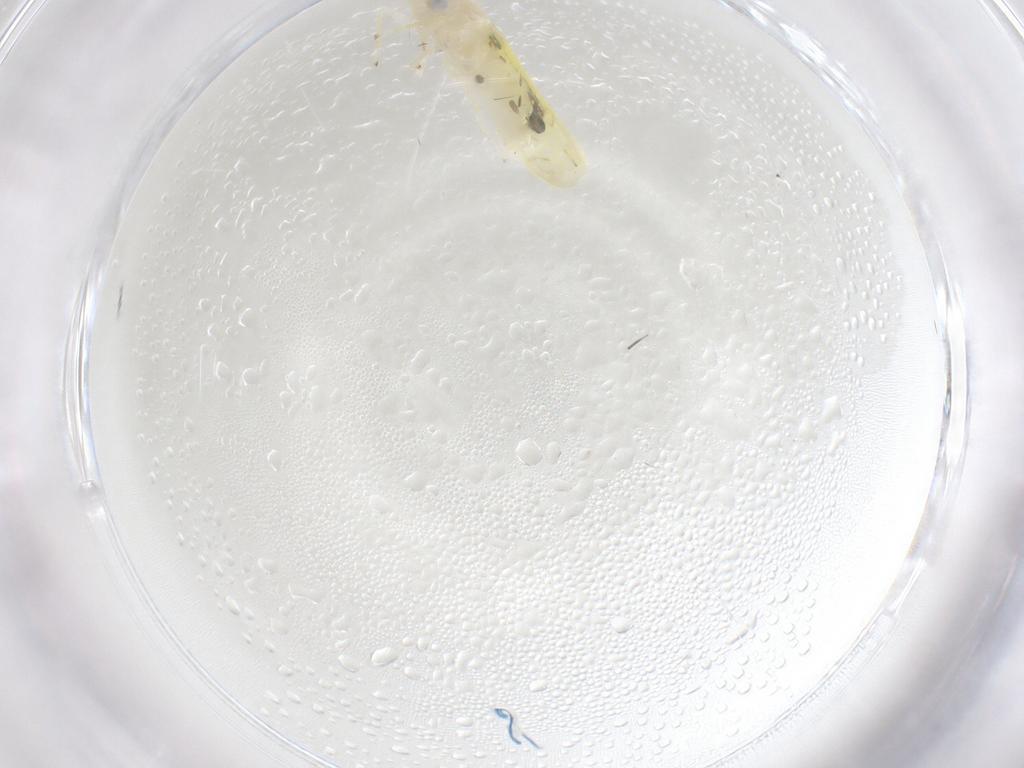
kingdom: Animalia
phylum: Arthropoda
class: Insecta
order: Hemiptera
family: Cicadellidae
